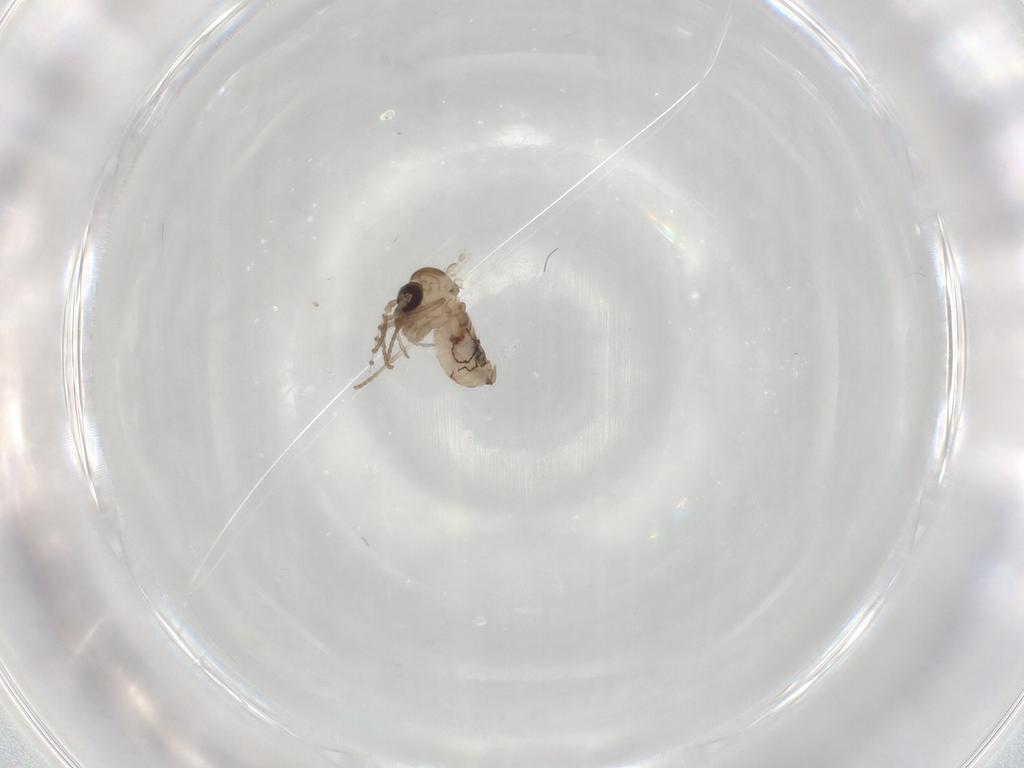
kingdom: Animalia
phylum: Arthropoda
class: Insecta
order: Diptera
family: Psychodidae
